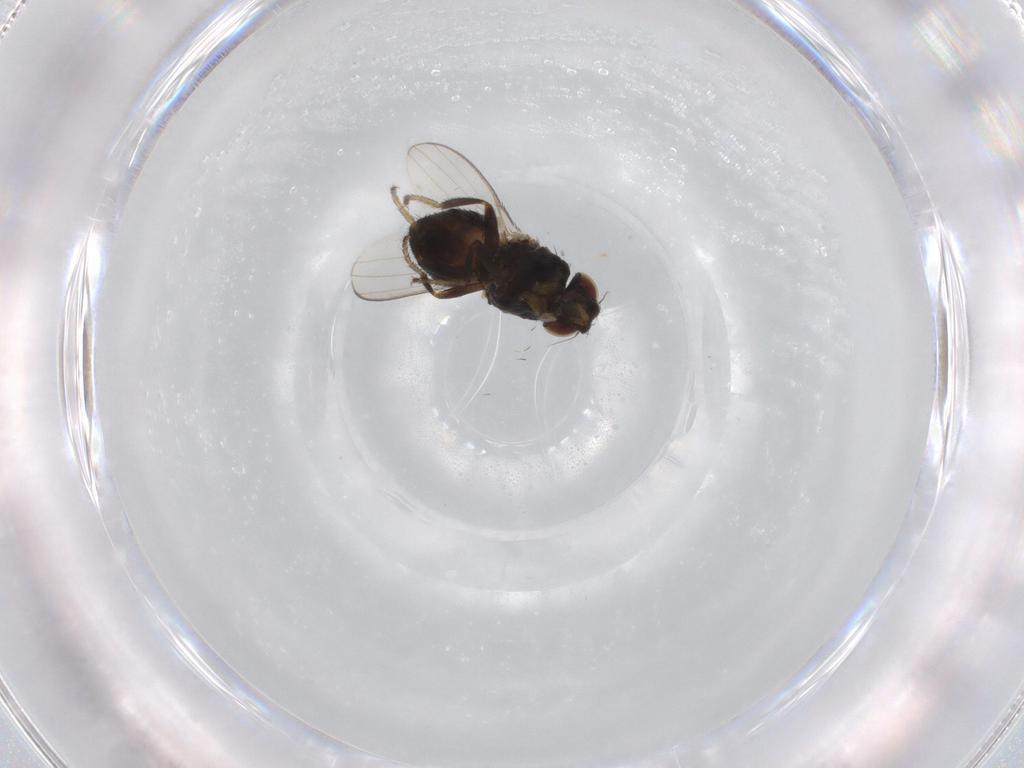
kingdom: Animalia
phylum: Arthropoda
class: Insecta
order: Diptera
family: Milichiidae
